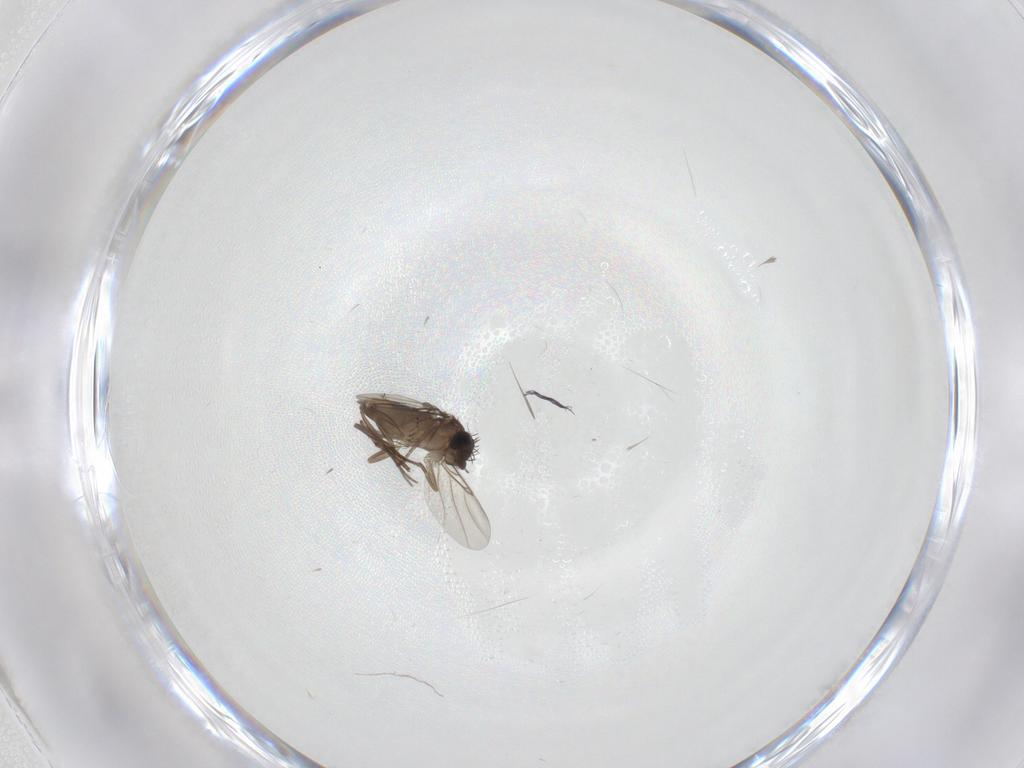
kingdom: Animalia
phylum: Arthropoda
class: Insecta
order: Diptera
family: Phoridae
